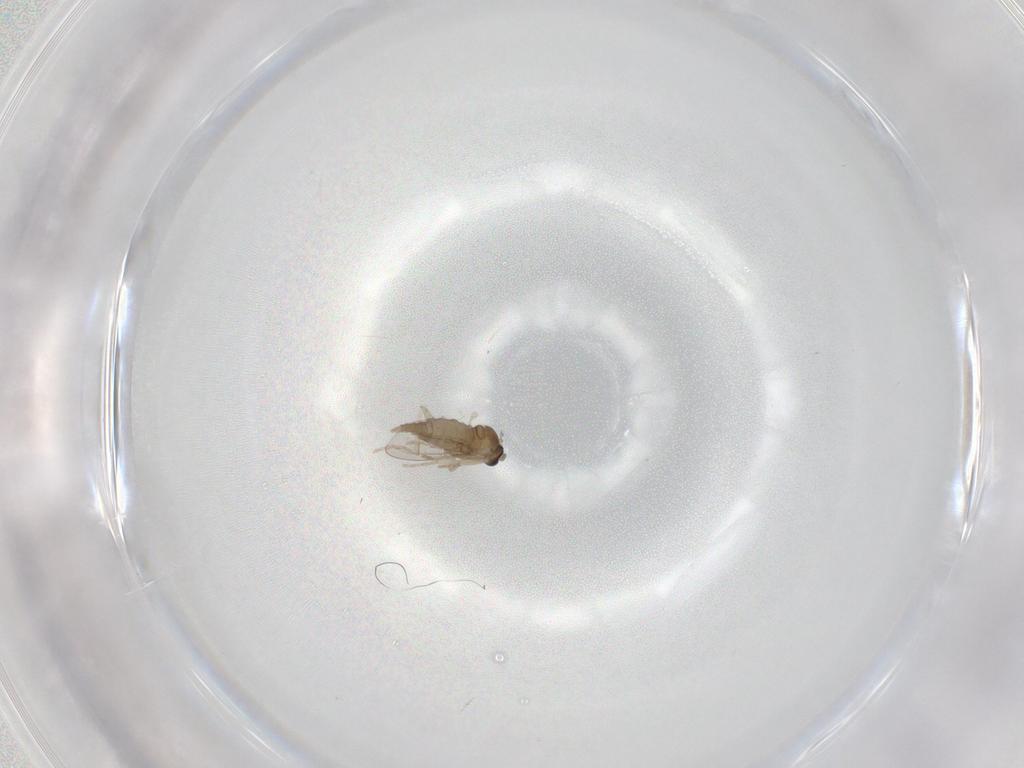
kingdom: Animalia
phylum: Arthropoda
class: Insecta
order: Diptera
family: Cecidomyiidae
